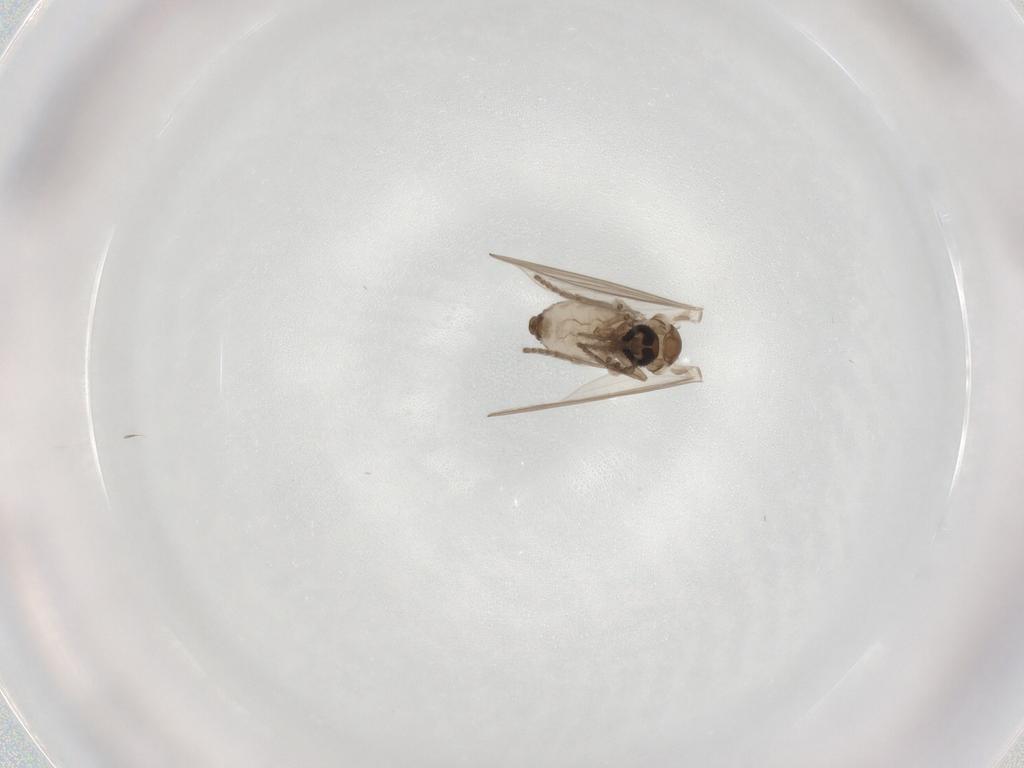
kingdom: Animalia
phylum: Arthropoda
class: Insecta
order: Diptera
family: Psychodidae
